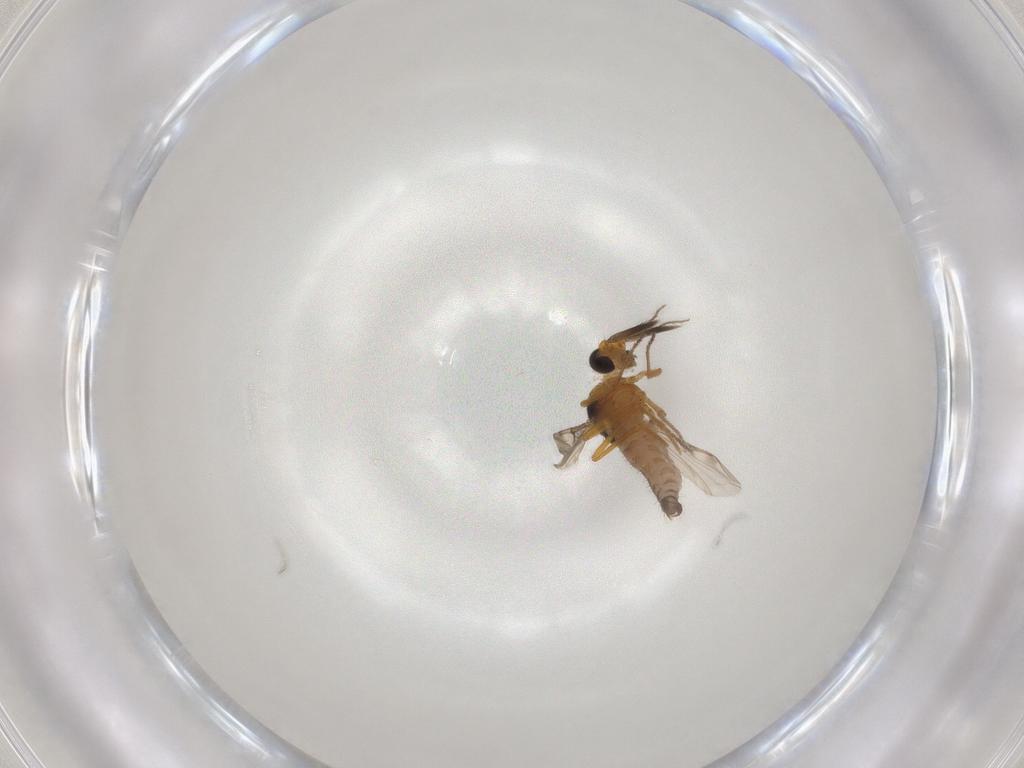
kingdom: Animalia
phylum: Arthropoda
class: Insecta
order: Diptera
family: Ceratopogonidae
